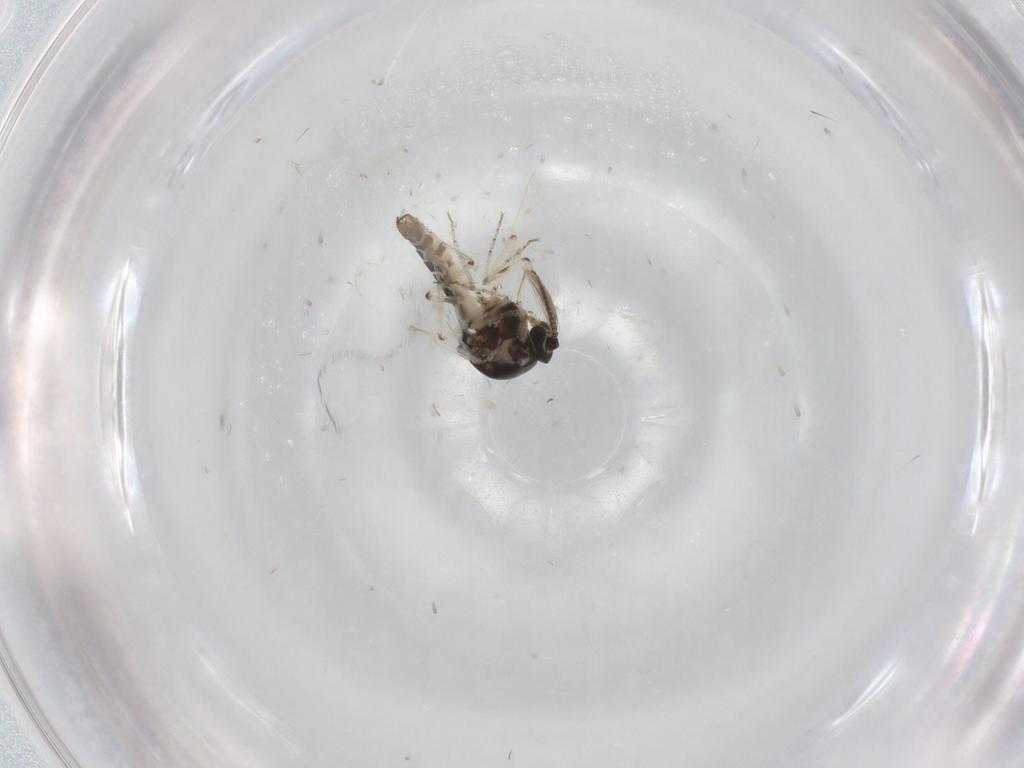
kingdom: Animalia
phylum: Arthropoda
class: Insecta
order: Diptera
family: Ceratopogonidae
